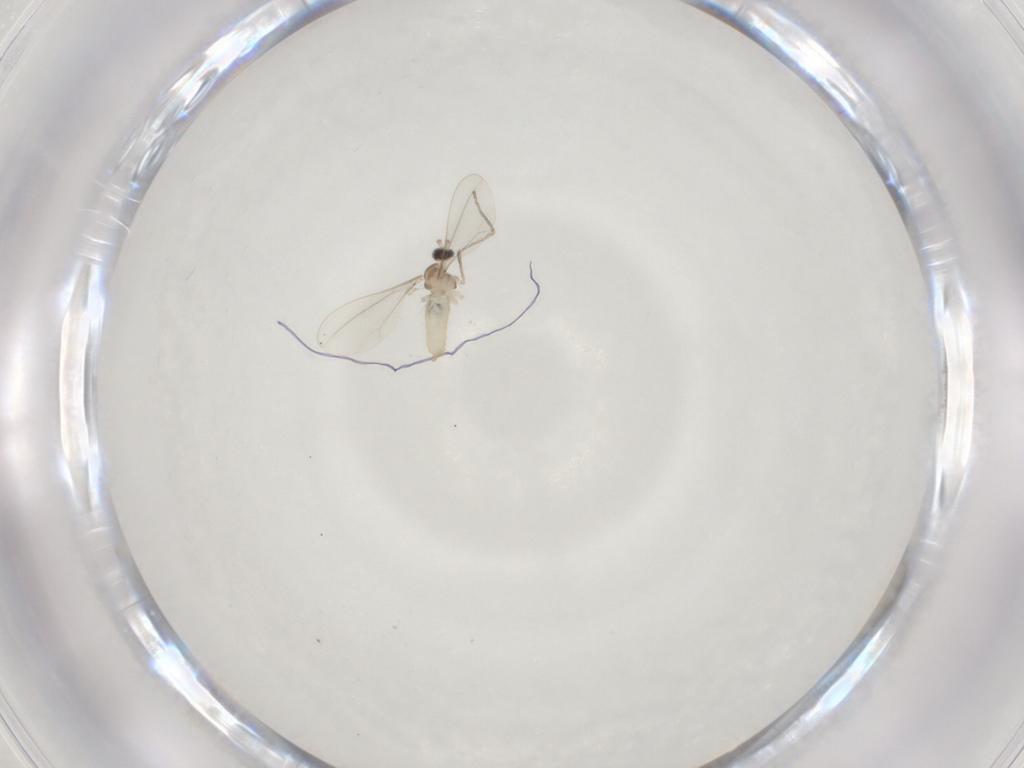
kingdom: Animalia
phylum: Arthropoda
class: Insecta
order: Diptera
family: Cecidomyiidae
